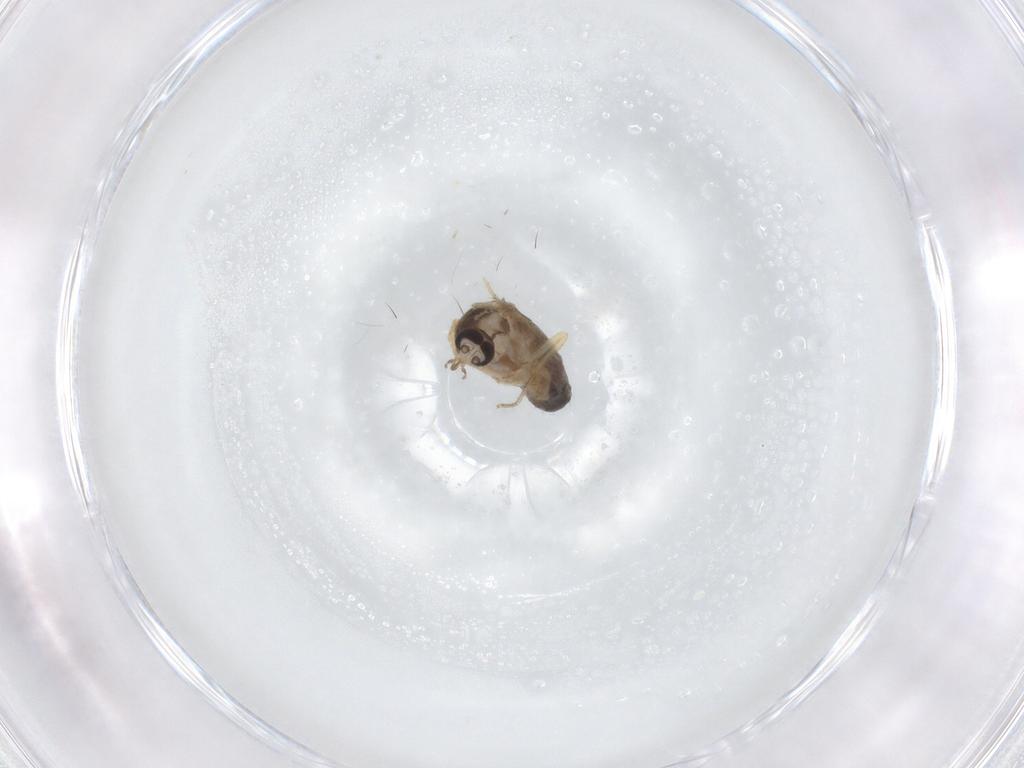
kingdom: Animalia
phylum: Arthropoda
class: Insecta
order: Diptera
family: Ceratopogonidae
